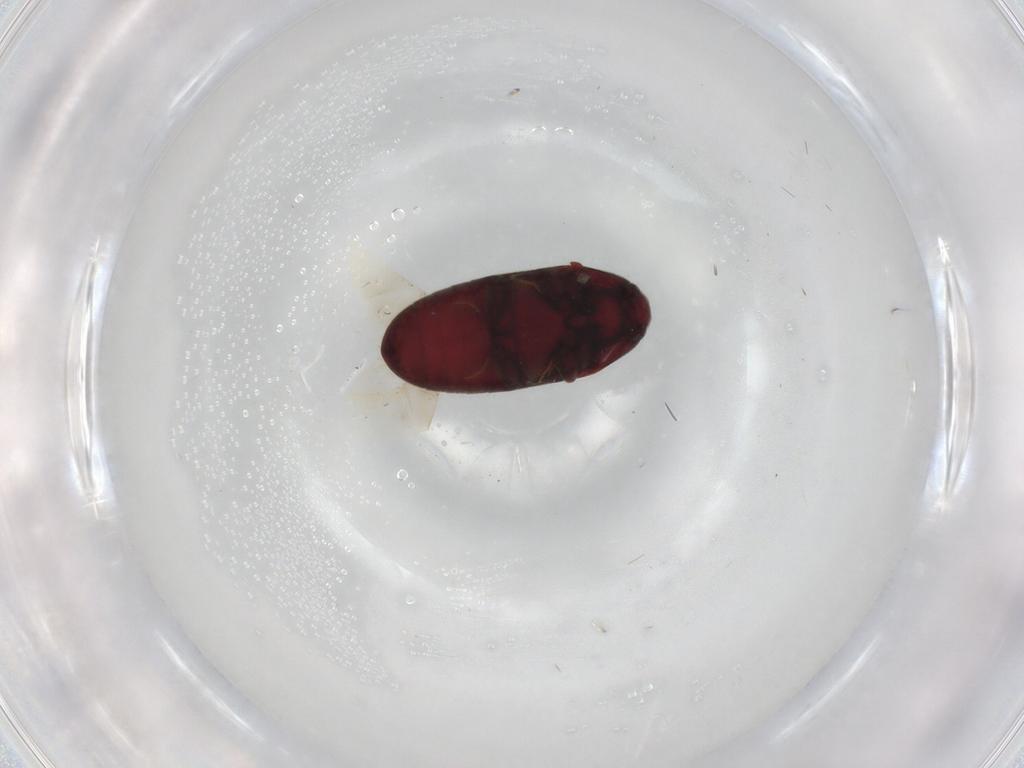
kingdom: Animalia
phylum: Arthropoda
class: Insecta
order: Coleoptera
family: Throscidae
